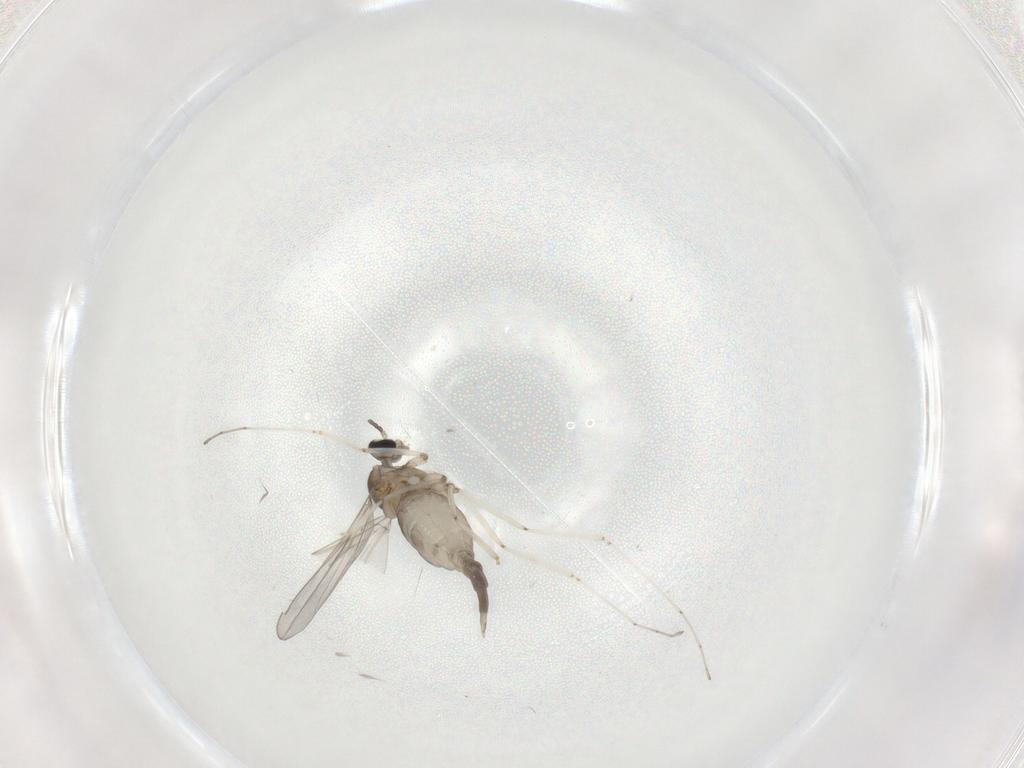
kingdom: Animalia
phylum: Arthropoda
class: Insecta
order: Diptera
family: Cecidomyiidae
